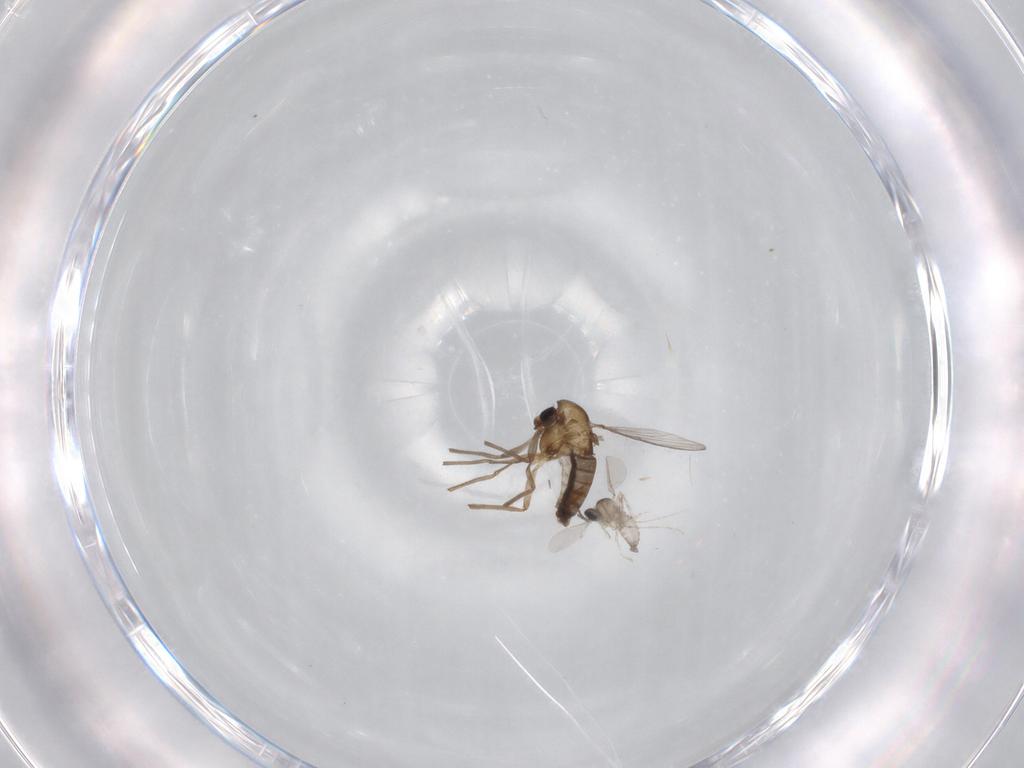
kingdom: Animalia
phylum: Arthropoda
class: Insecta
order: Diptera
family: Chironomidae
